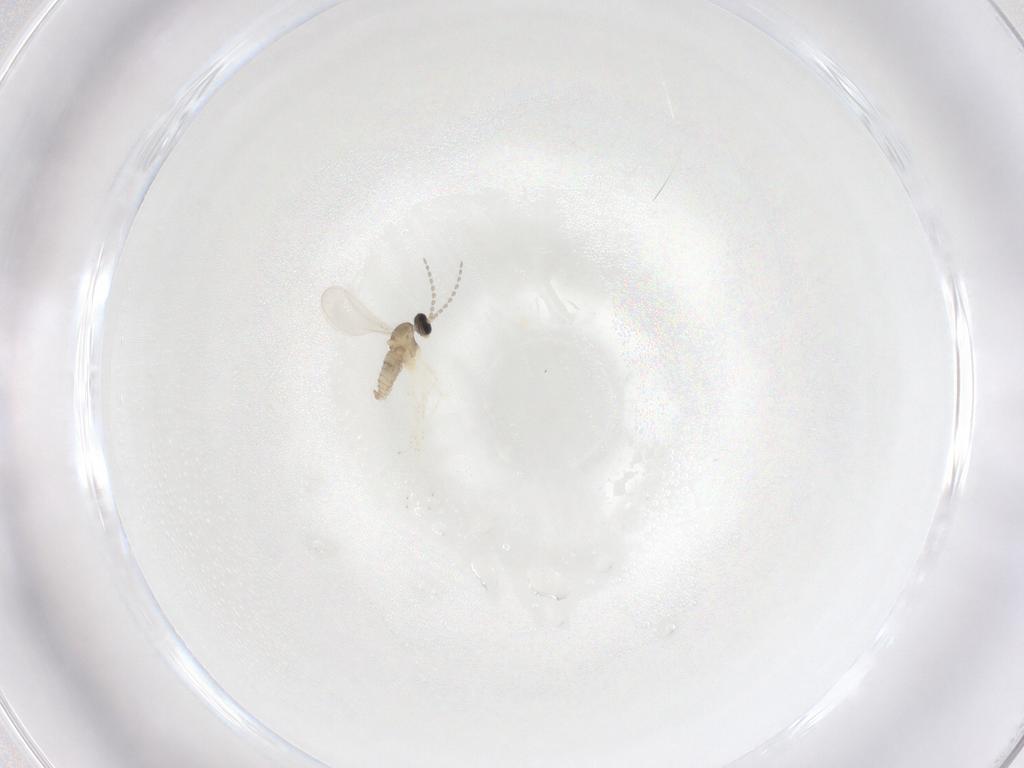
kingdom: Animalia
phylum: Arthropoda
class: Insecta
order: Diptera
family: Cecidomyiidae
